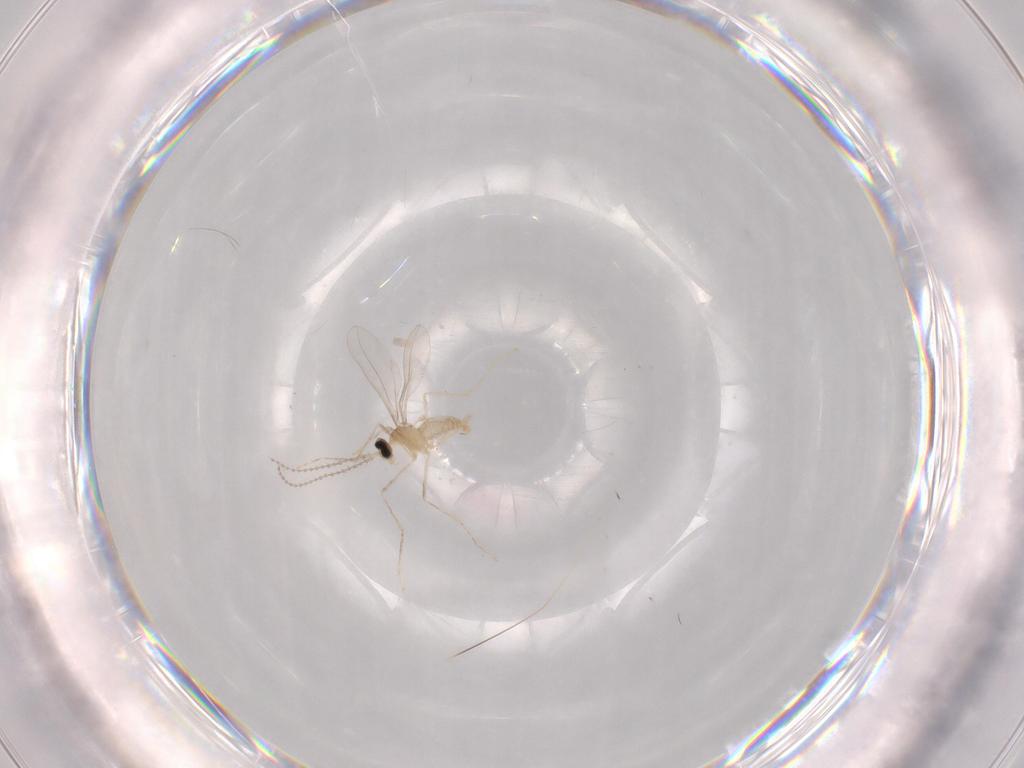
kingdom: Animalia
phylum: Arthropoda
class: Insecta
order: Diptera
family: Cecidomyiidae
